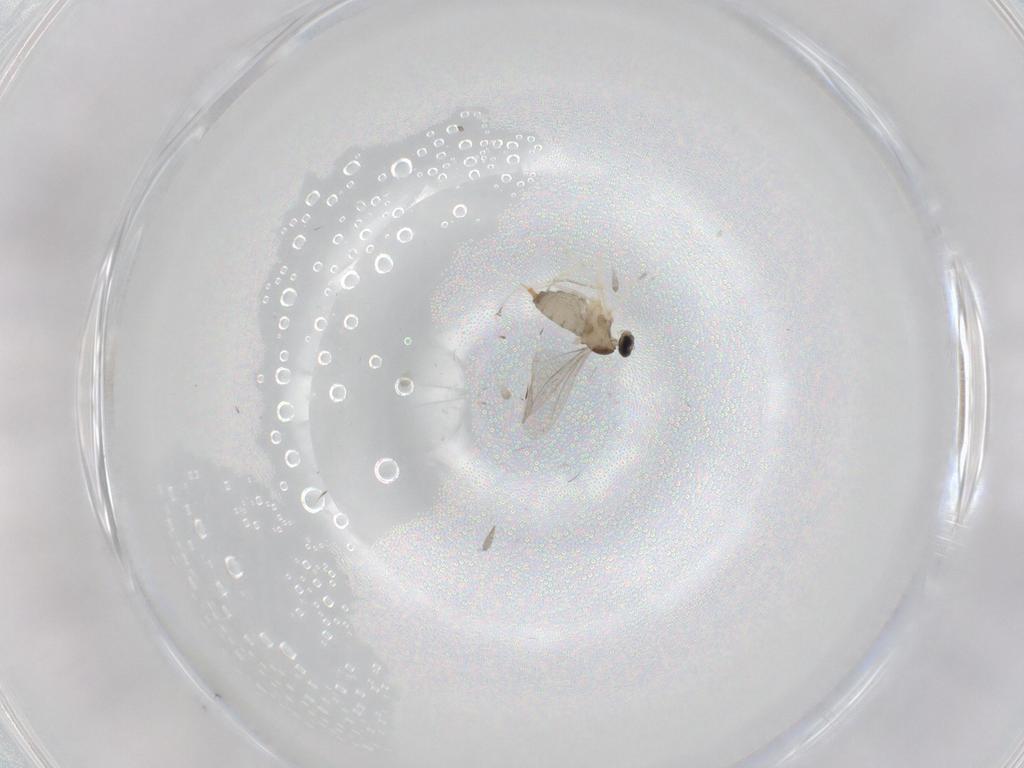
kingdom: Animalia
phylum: Arthropoda
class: Insecta
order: Diptera
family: Cecidomyiidae
